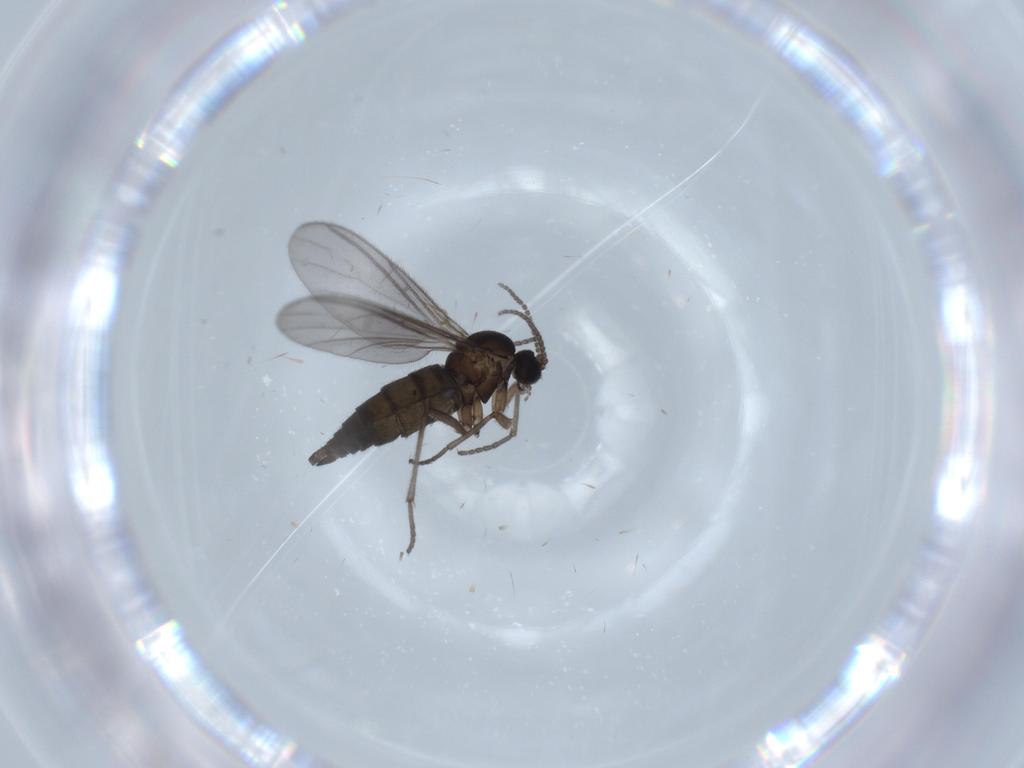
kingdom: Animalia
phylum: Arthropoda
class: Insecta
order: Diptera
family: Sciaridae
